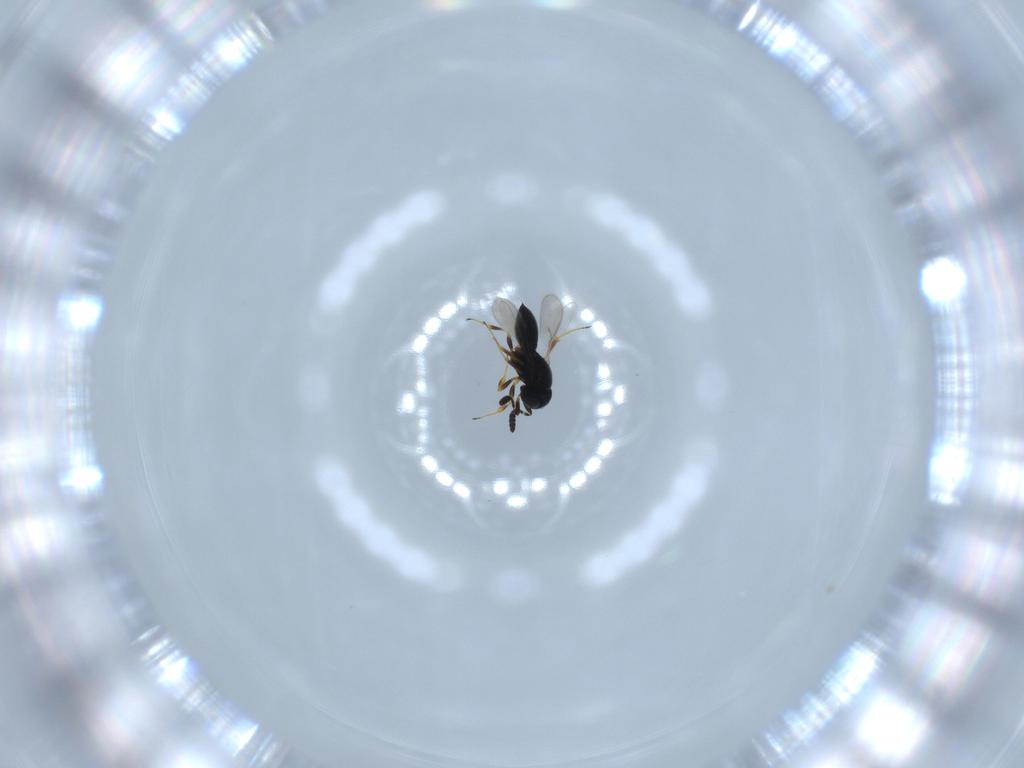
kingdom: Animalia
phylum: Arthropoda
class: Insecta
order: Hymenoptera
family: Scelionidae
